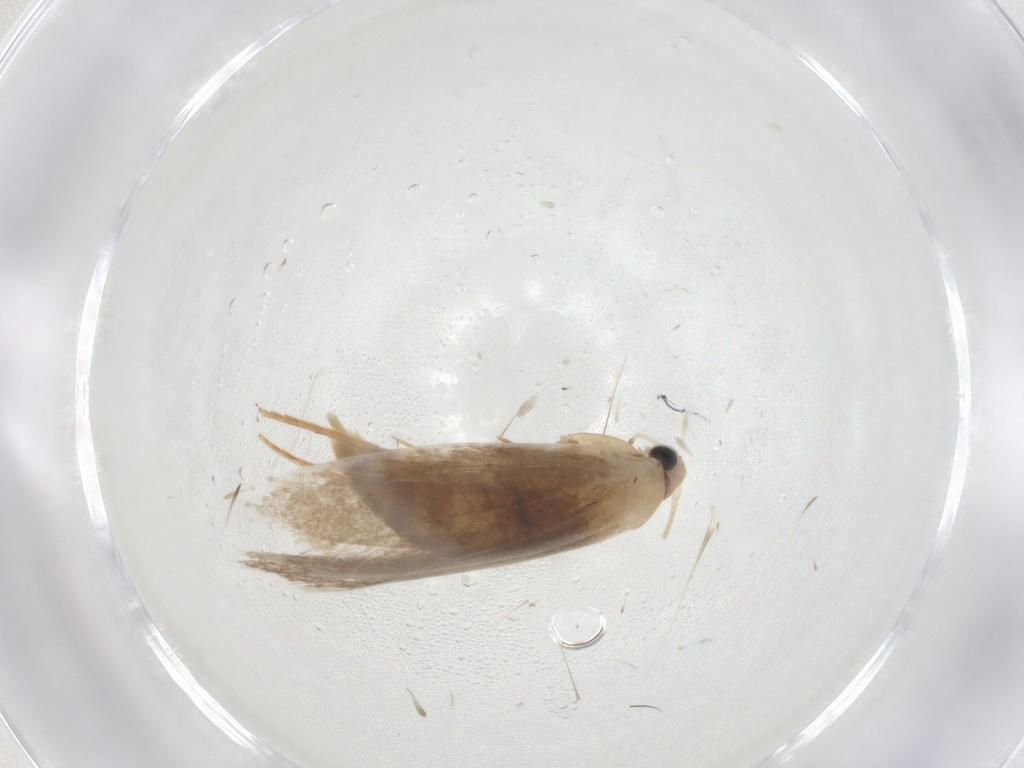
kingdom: Animalia
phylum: Arthropoda
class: Insecta
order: Lepidoptera
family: Tineidae
